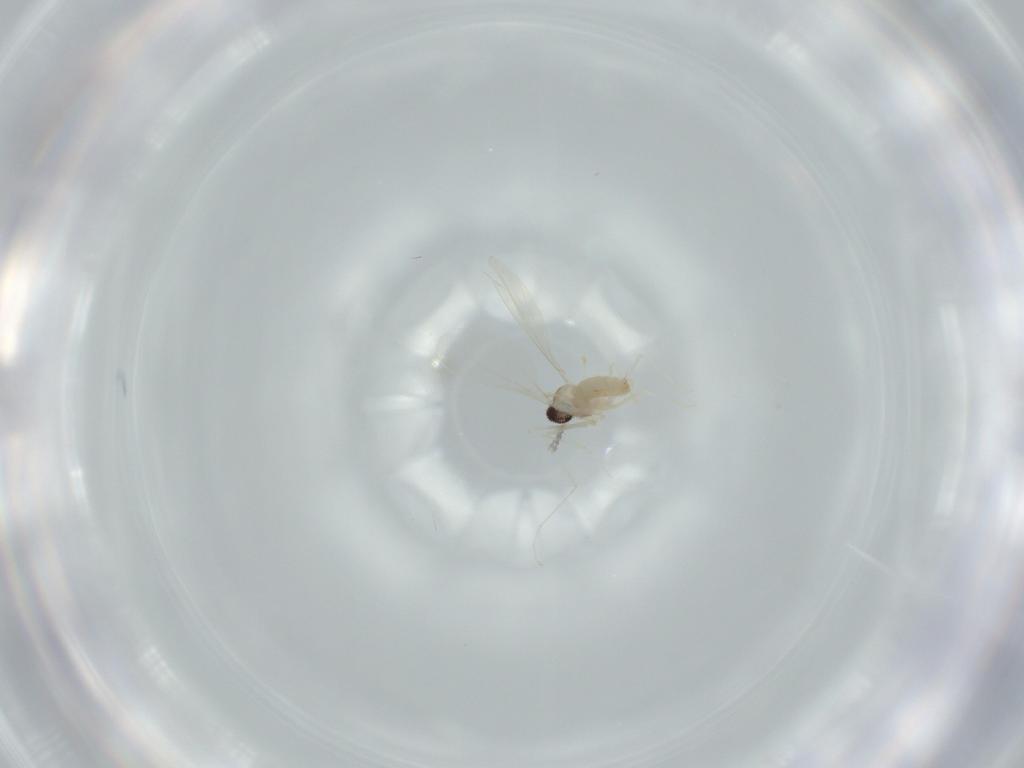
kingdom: Animalia
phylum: Arthropoda
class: Insecta
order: Diptera
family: Cecidomyiidae
